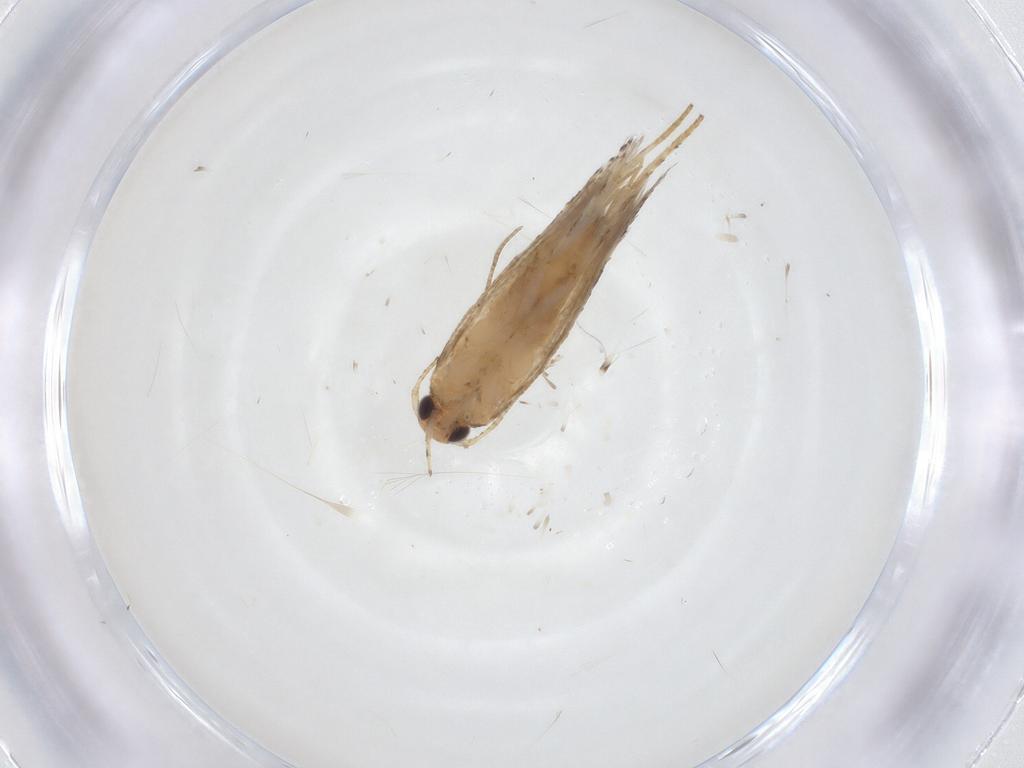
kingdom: Animalia
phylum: Arthropoda
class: Insecta
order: Lepidoptera
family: Gelechiidae
